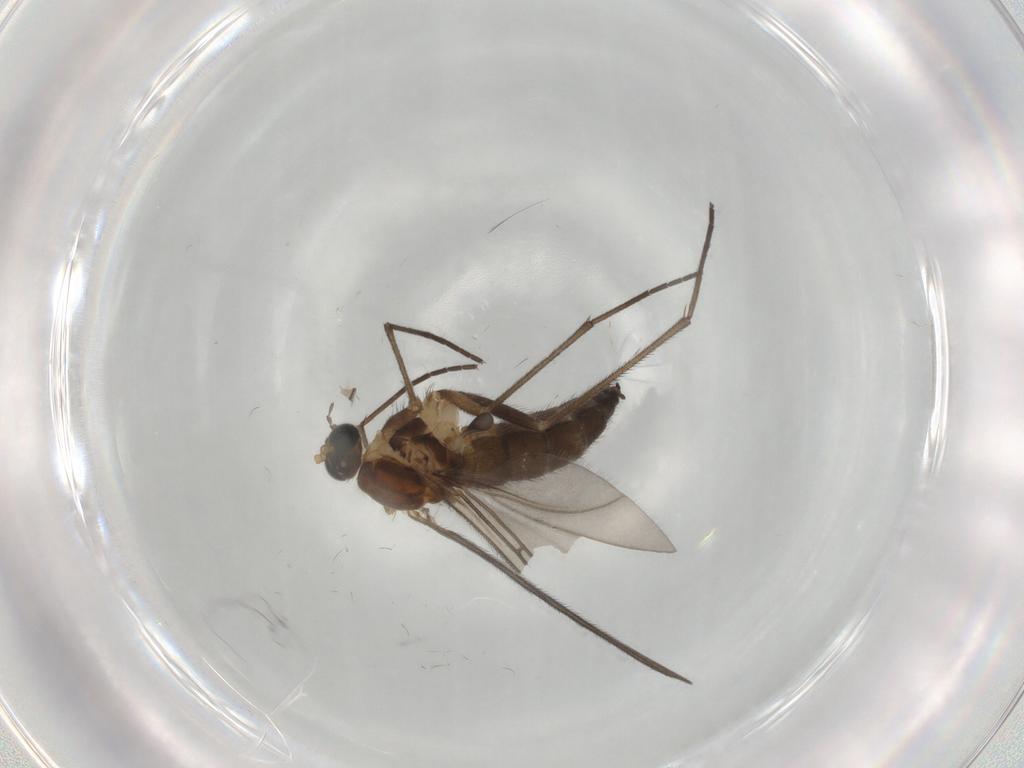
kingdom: Animalia
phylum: Arthropoda
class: Insecta
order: Diptera
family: Sciaridae
